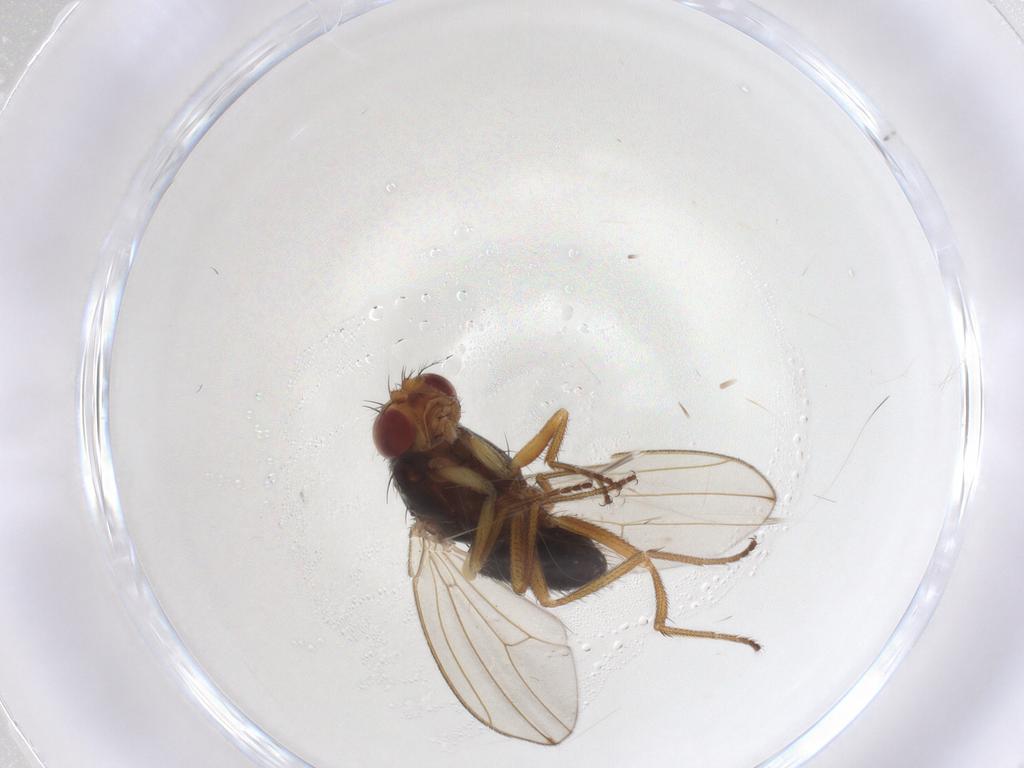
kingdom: Animalia
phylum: Arthropoda
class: Insecta
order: Diptera
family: Drosophilidae
